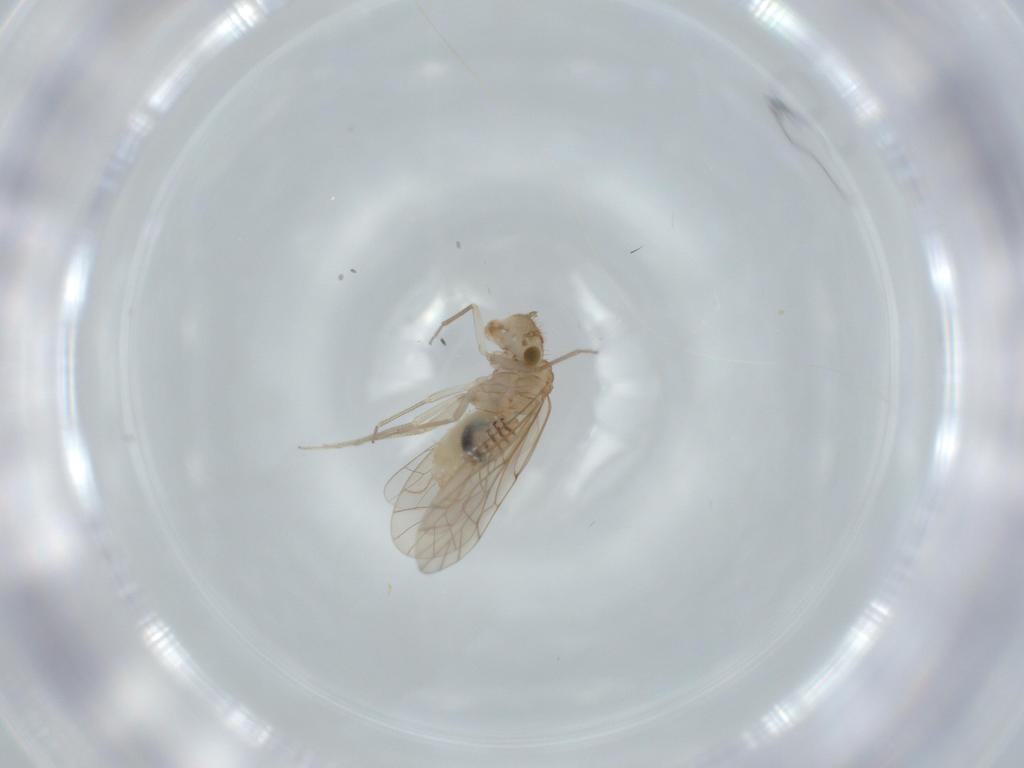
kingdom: Animalia
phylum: Arthropoda
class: Insecta
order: Psocodea
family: Lachesillidae
